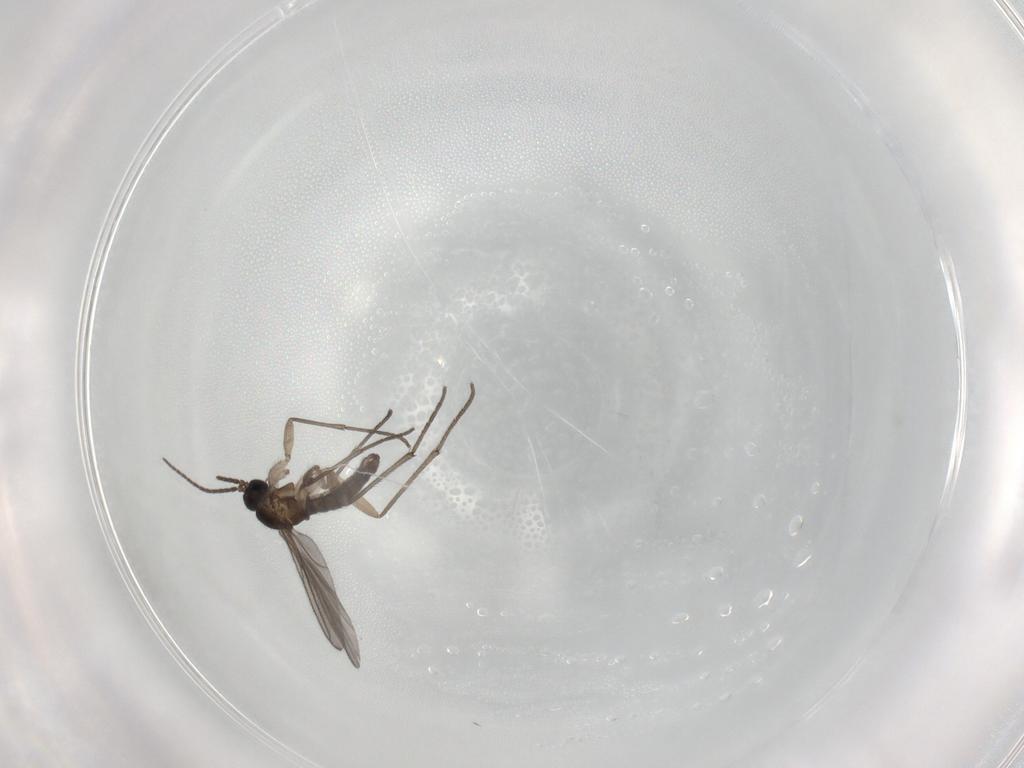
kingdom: Animalia
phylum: Arthropoda
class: Insecta
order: Diptera
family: Sciaridae
